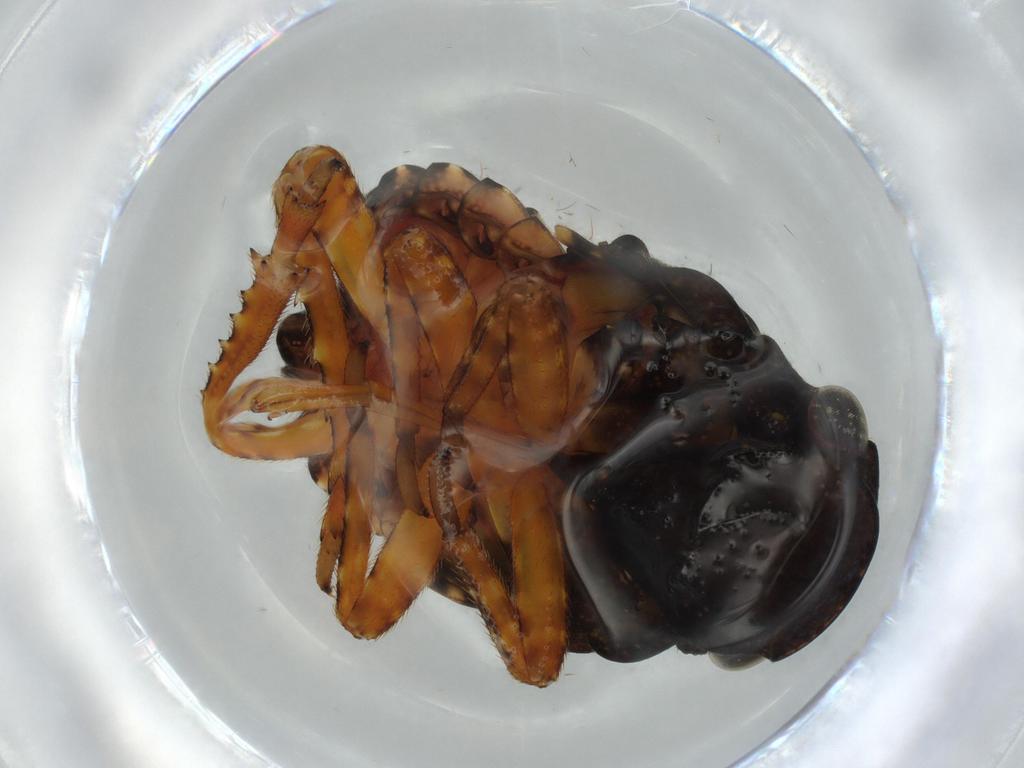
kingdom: Animalia
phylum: Arthropoda
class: Insecta
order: Hemiptera
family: Fulgoridae
